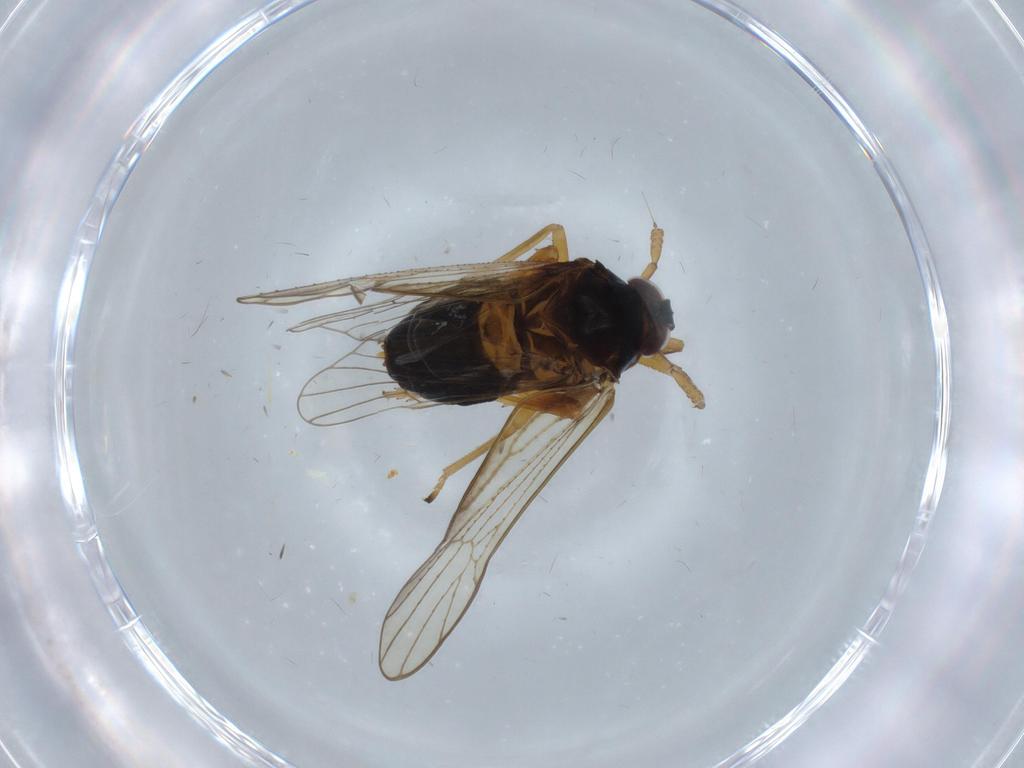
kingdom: Animalia
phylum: Arthropoda
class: Insecta
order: Hemiptera
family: Delphacidae
